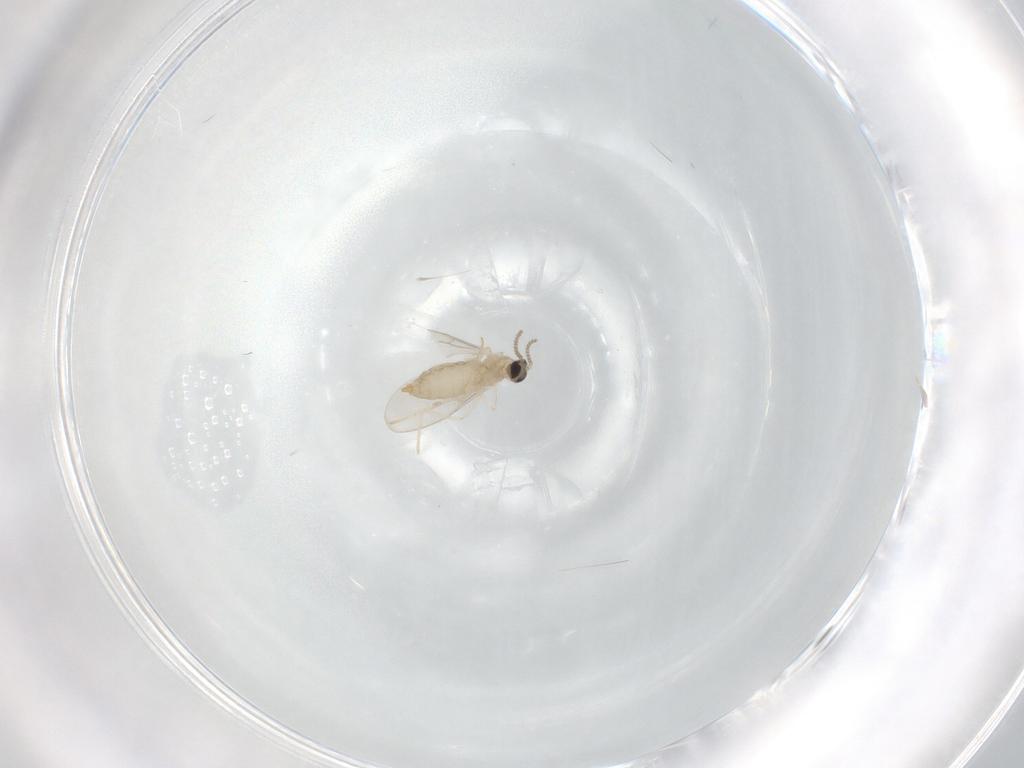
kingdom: Animalia
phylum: Arthropoda
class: Insecta
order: Diptera
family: Cecidomyiidae
